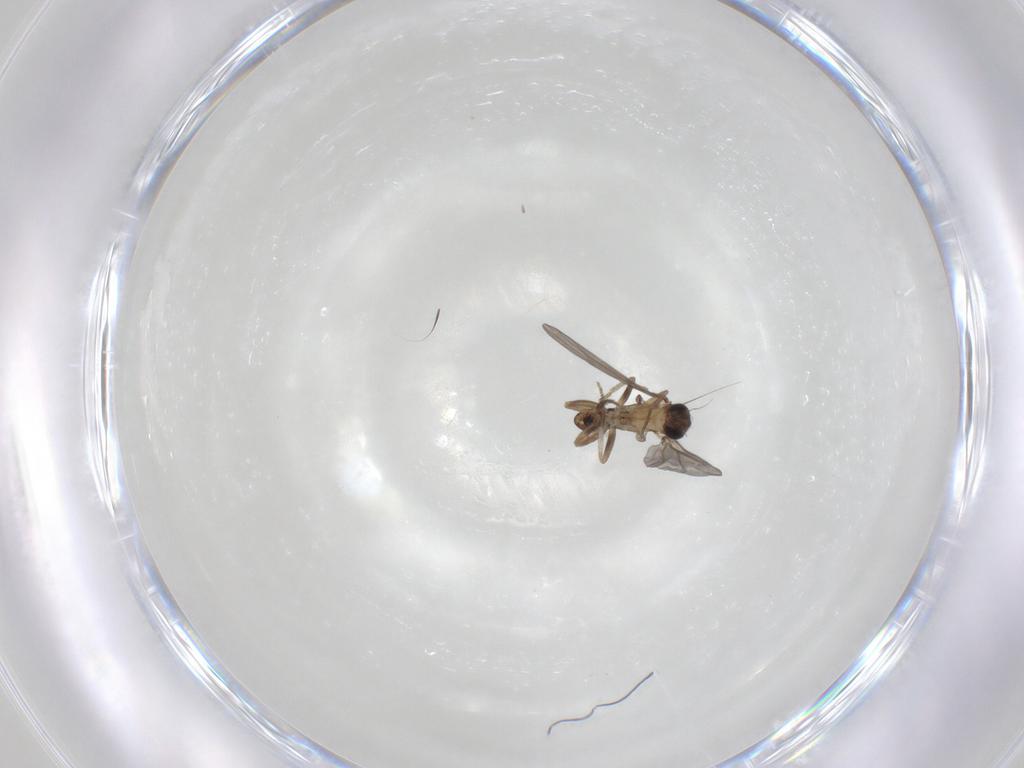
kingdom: Animalia
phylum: Arthropoda
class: Insecta
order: Diptera
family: Phoridae
